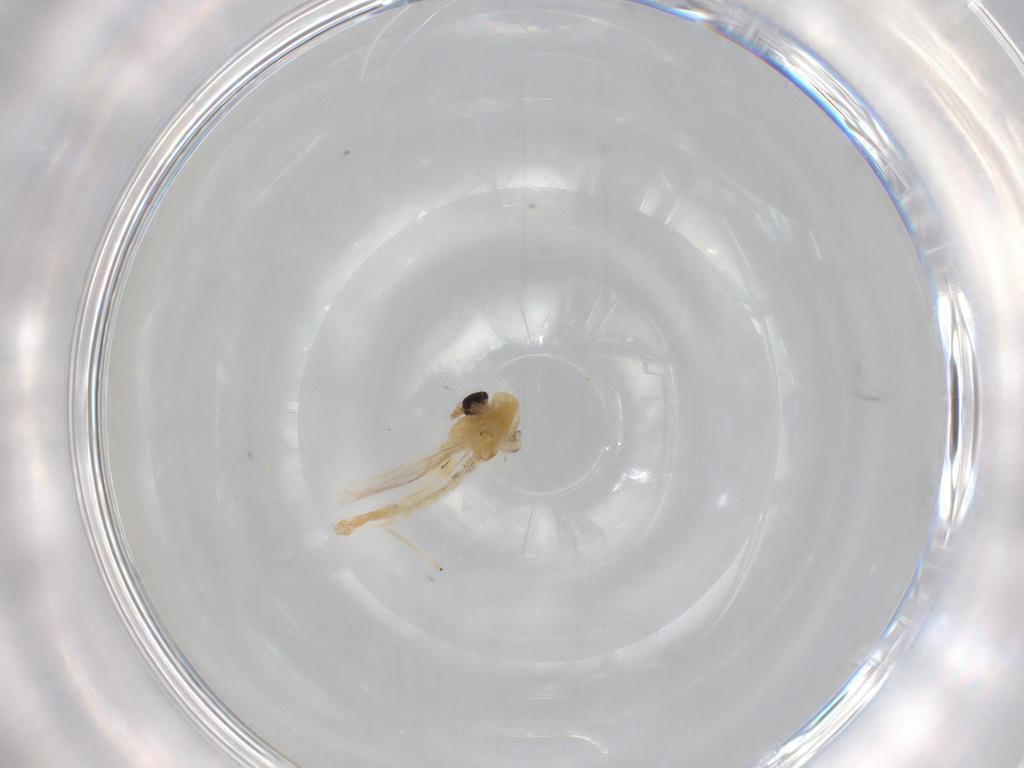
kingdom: Animalia
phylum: Arthropoda
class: Insecta
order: Diptera
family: Glossinidae
